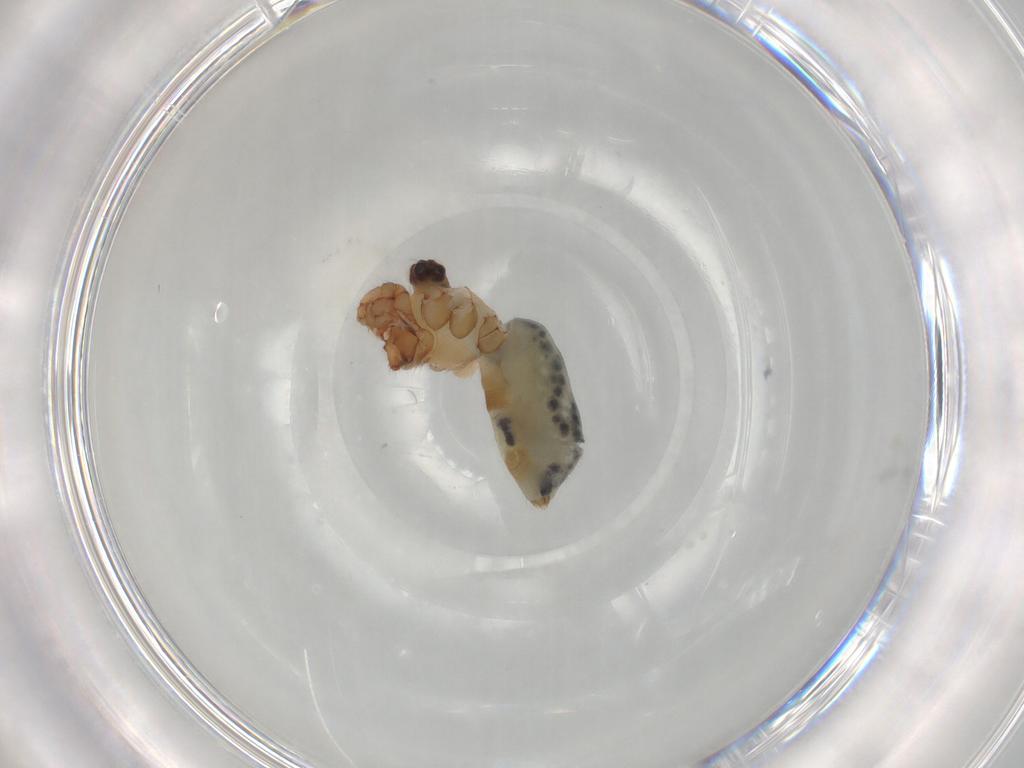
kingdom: Animalia
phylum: Arthropoda
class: Arachnida
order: Araneae
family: Pholcidae
